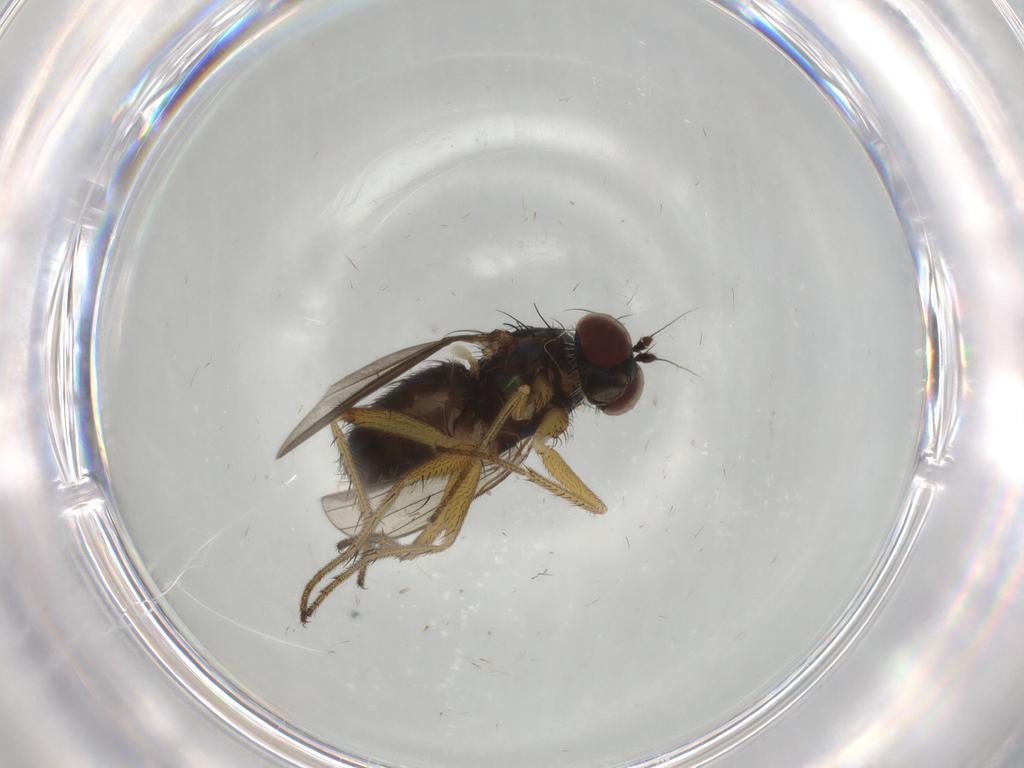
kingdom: Animalia
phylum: Arthropoda
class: Insecta
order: Diptera
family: Dolichopodidae
